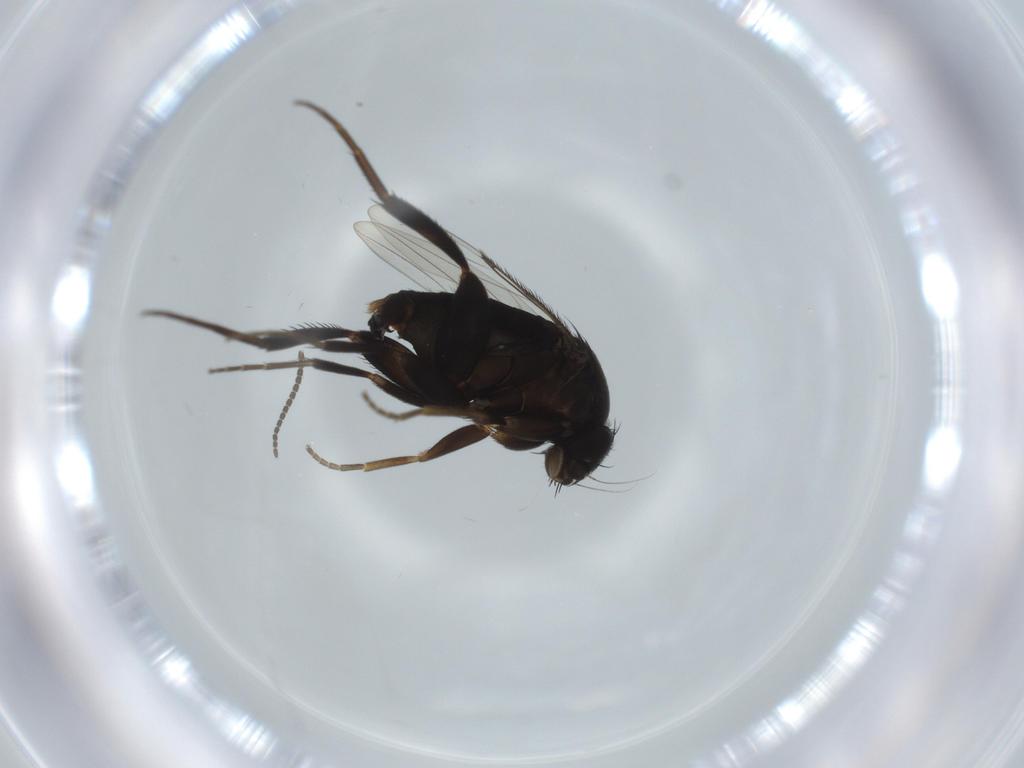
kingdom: Animalia
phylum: Arthropoda
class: Insecta
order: Diptera
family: Phoridae
